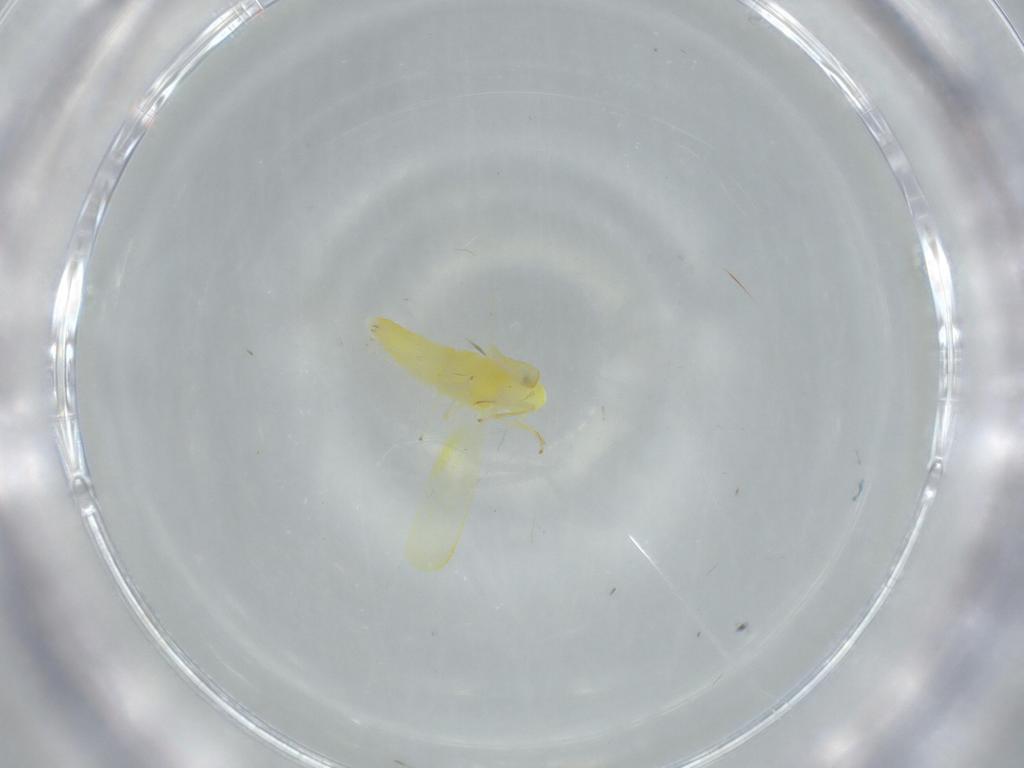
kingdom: Animalia
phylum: Arthropoda
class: Insecta
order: Hemiptera
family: Cicadellidae
